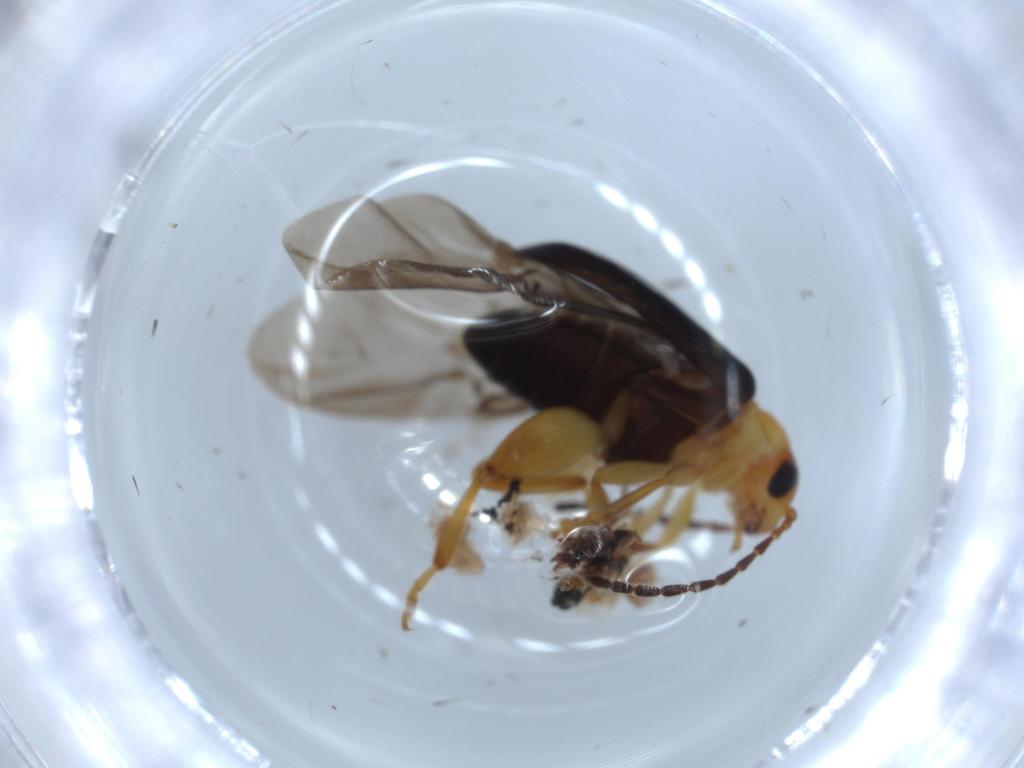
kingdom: Animalia
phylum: Arthropoda
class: Insecta
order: Coleoptera
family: Chrysomelidae
